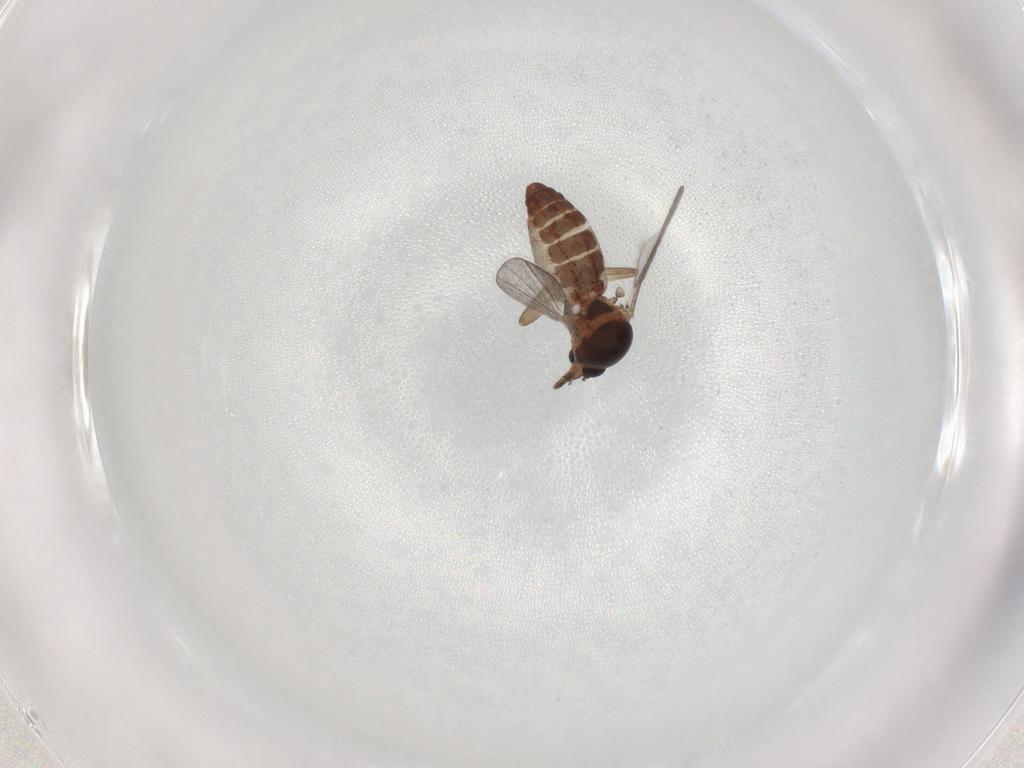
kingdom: Animalia
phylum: Arthropoda
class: Insecta
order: Diptera
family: Ceratopogonidae
